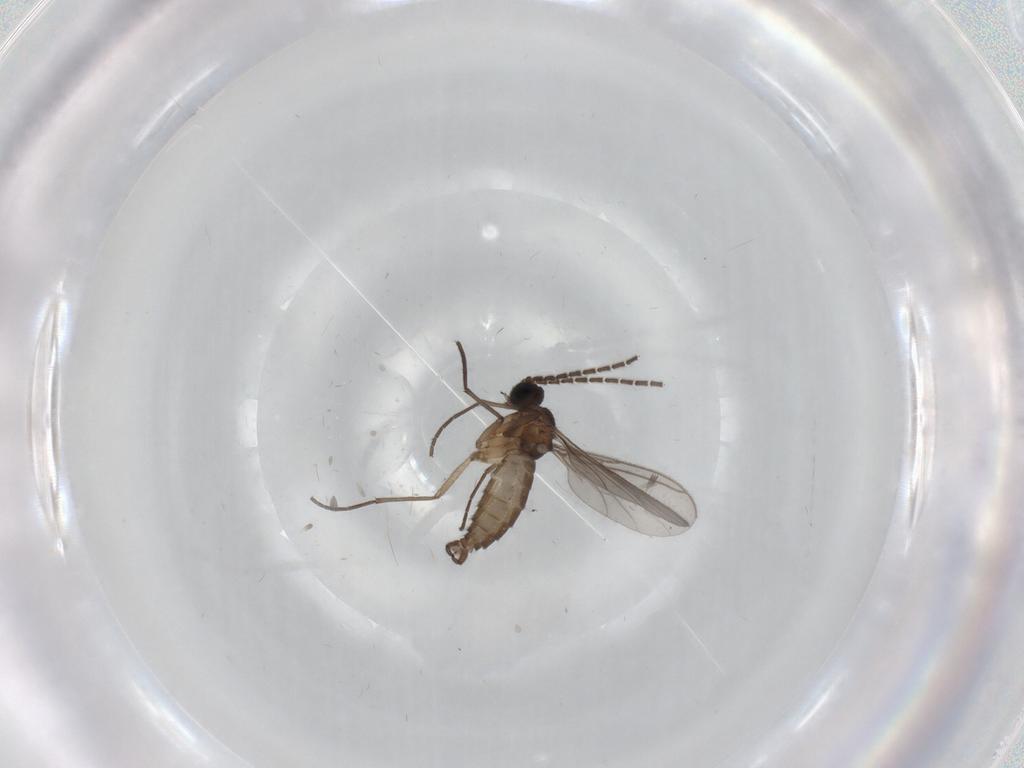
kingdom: Animalia
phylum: Arthropoda
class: Insecta
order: Diptera
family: Sciaridae
